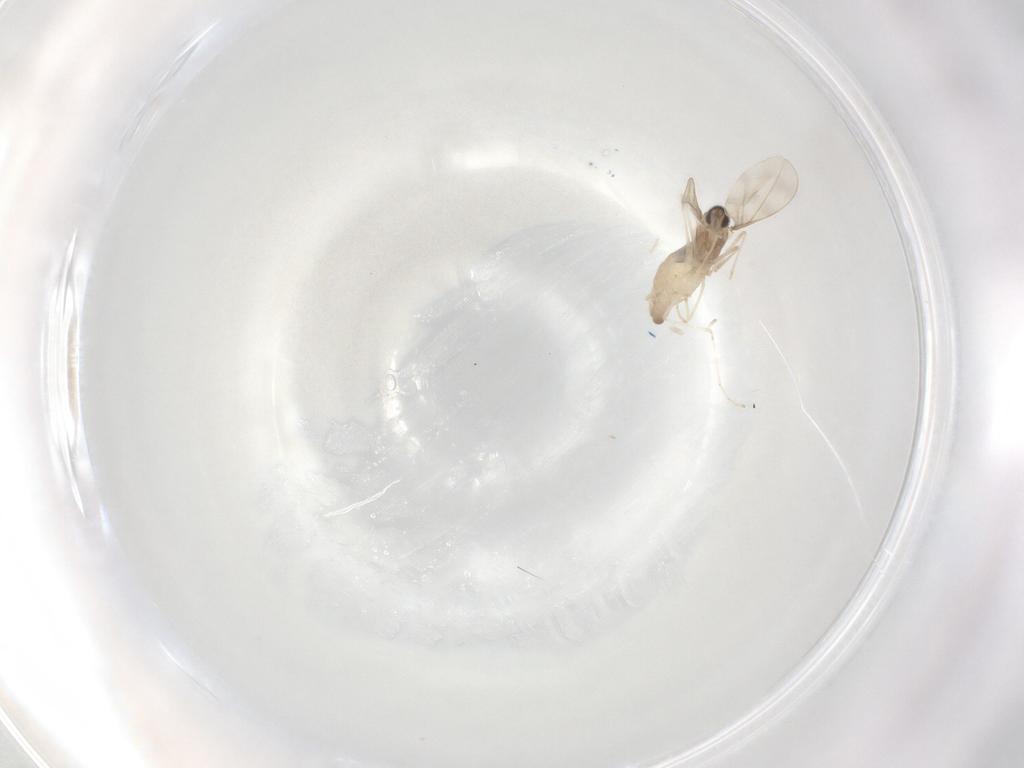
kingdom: Animalia
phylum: Arthropoda
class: Insecta
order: Diptera
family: Cecidomyiidae
